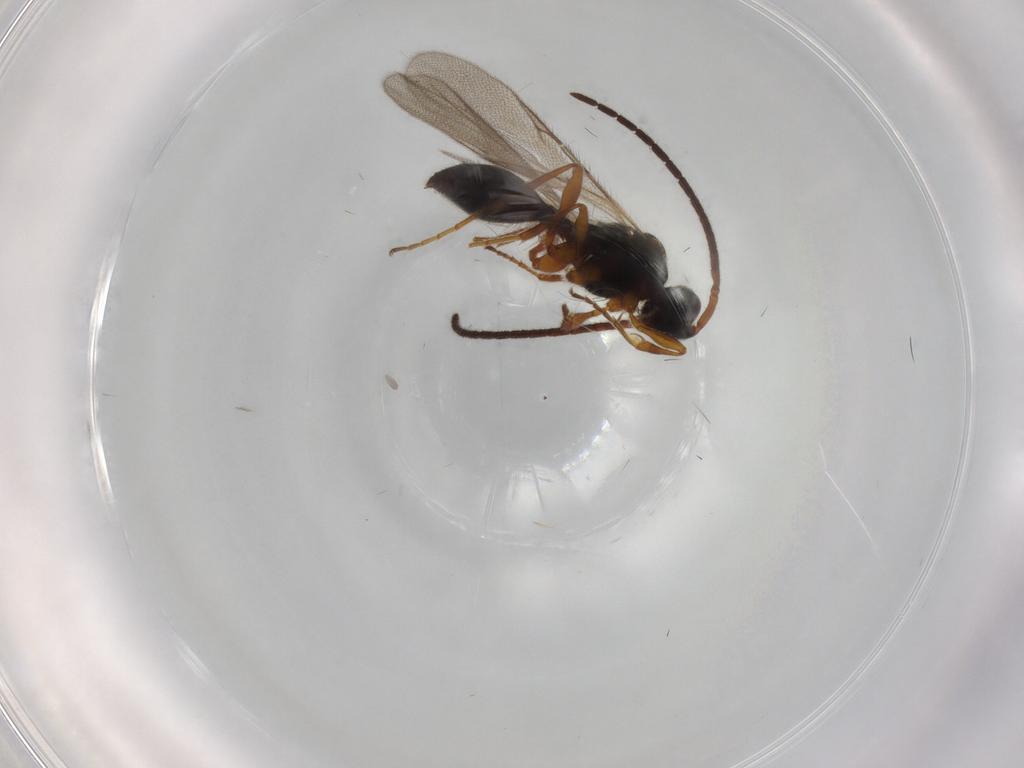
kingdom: Animalia
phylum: Arthropoda
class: Insecta
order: Hymenoptera
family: Diapriidae
